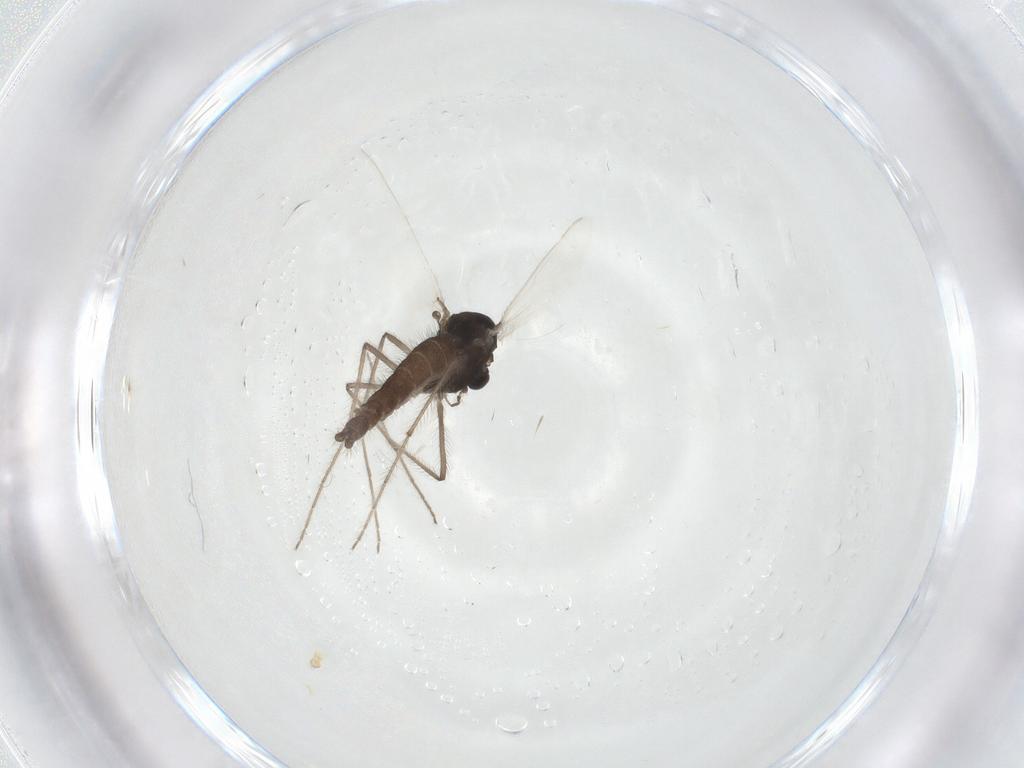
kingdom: Animalia
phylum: Arthropoda
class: Insecta
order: Diptera
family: Chironomidae
